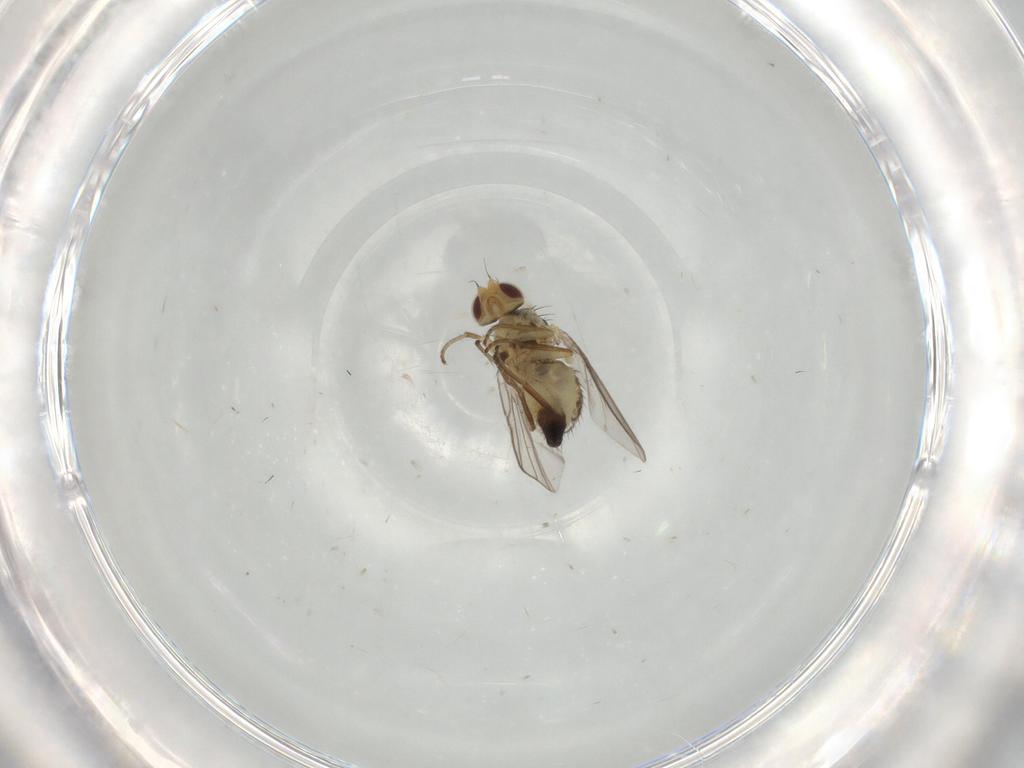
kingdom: Animalia
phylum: Arthropoda
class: Insecta
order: Diptera
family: Agromyzidae
